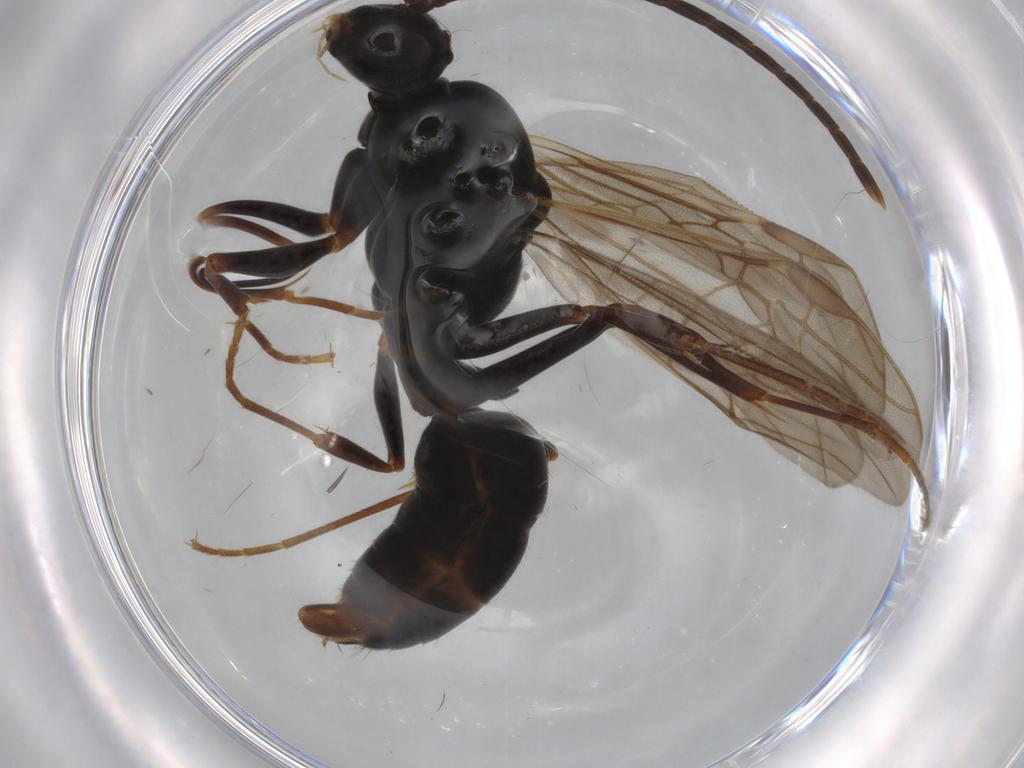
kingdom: Animalia
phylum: Arthropoda
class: Insecta
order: Hymenoptera
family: Formicidae
